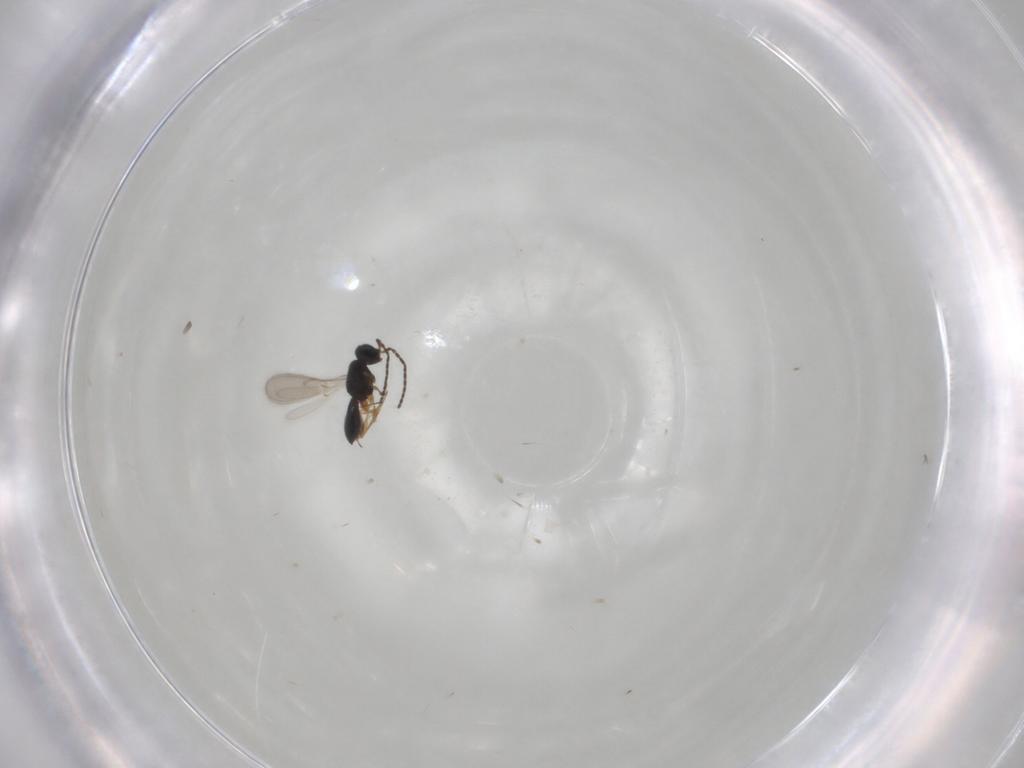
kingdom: Animalia
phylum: Arthropoda
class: Insecta
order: Hymenoptera
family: Scelionidae
